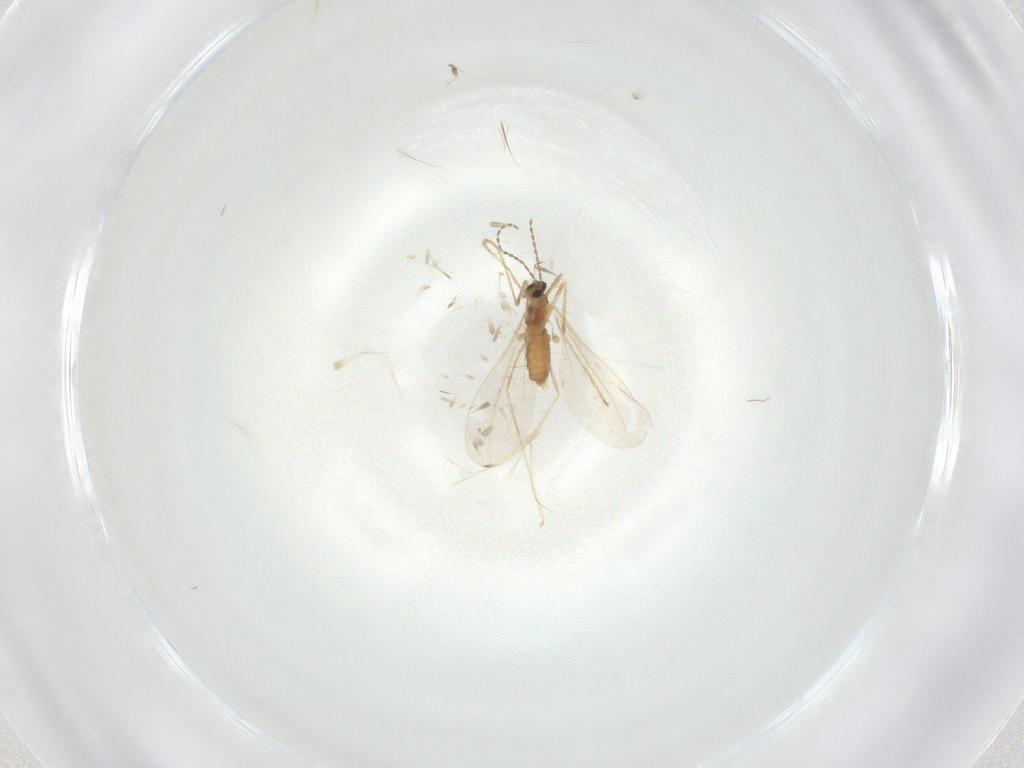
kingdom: Animalia
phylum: Arthropoda
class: Insecta
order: Diptera
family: Cecidomyiidae
